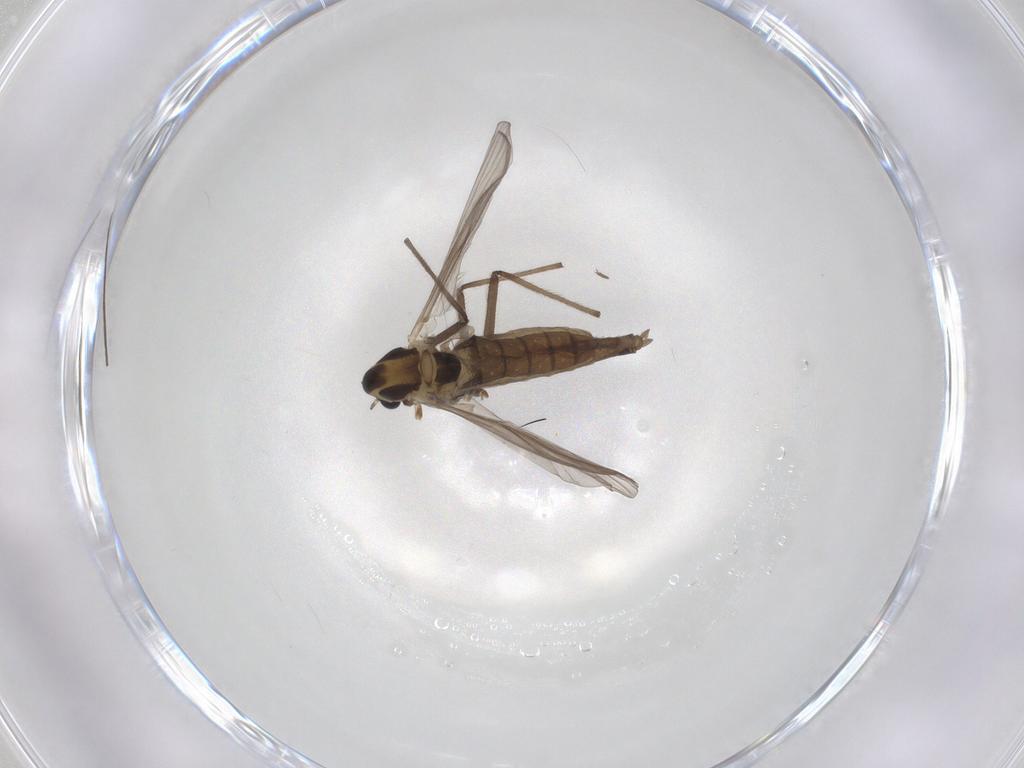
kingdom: Animalia
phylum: Arthropoda
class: Insecta
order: Diptera
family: Chironomidae
